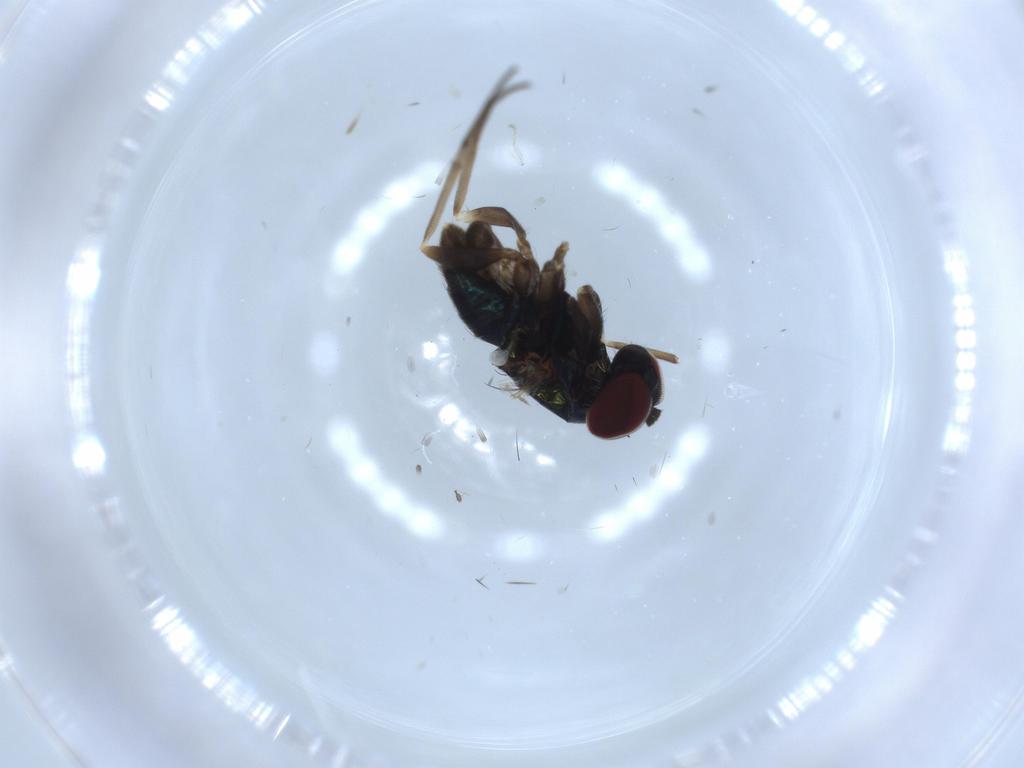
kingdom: Animalia
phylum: Arthropoda
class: Insecta
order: Diptera
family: Dolichopodidae
